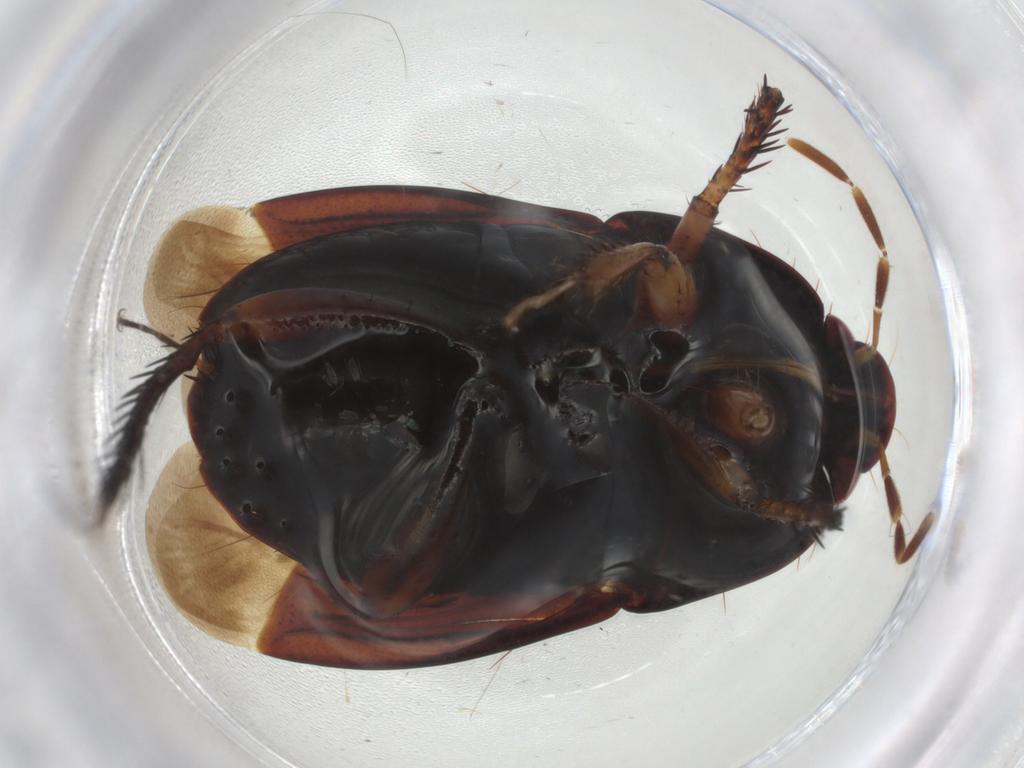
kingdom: Animalia
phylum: Arthropoda
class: Insecta
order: Hemiptera
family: Cydnidae
